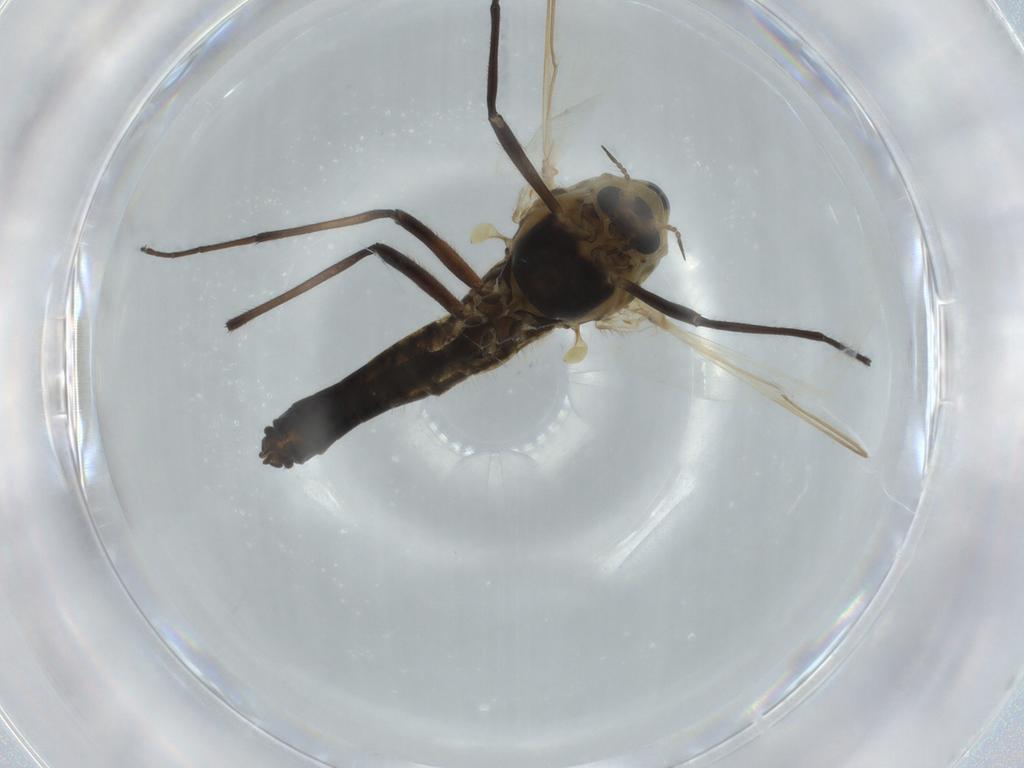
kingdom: Animalia
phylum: Arthropoda
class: Insecta
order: Diptera
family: Chironomidae
